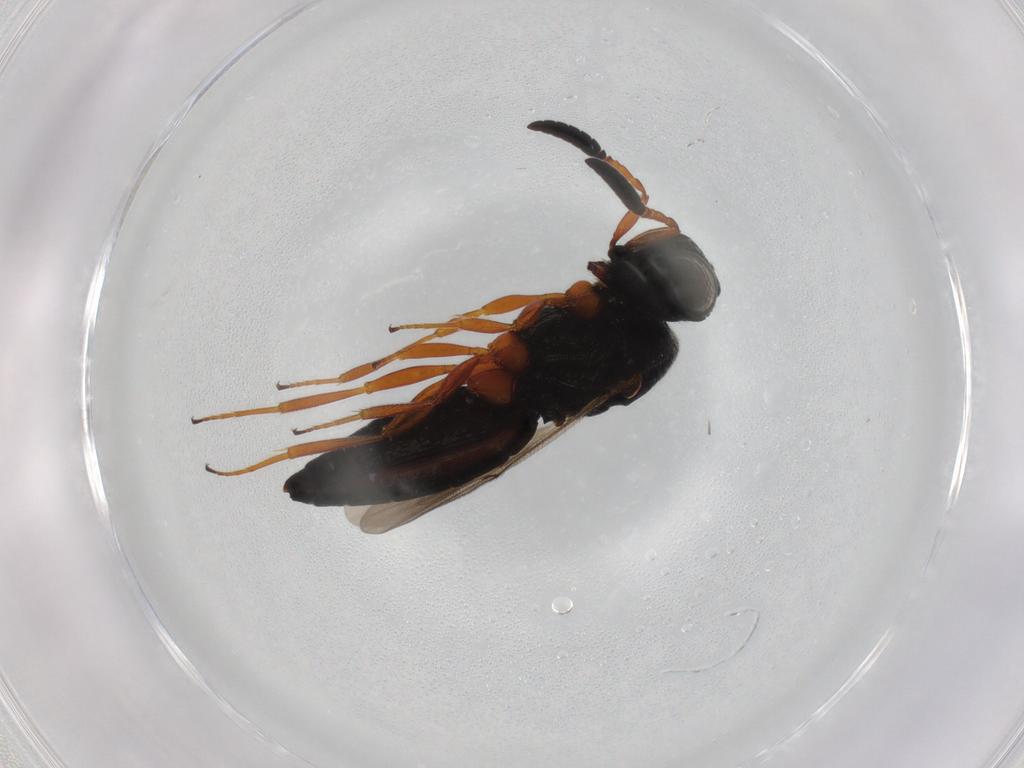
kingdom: Animalia
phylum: Arthropoda
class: Insecta
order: Hymenoptera
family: Scelionidae
